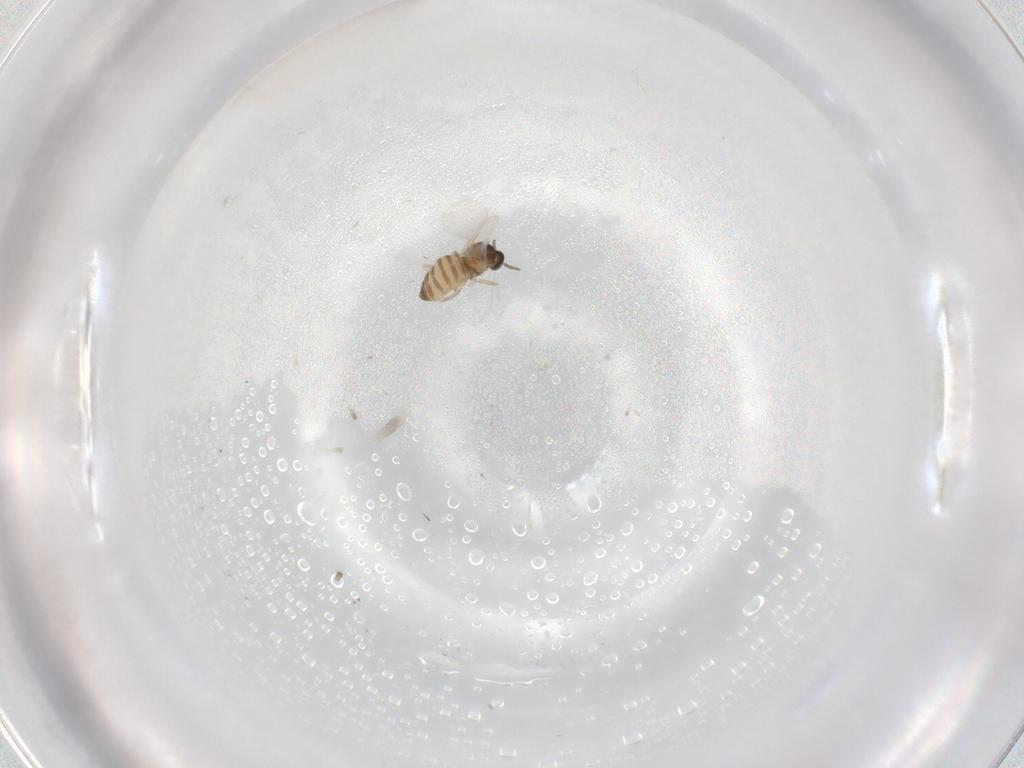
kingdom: Animalia
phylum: Arthropoda
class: Insecta
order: Diptera
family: Cecidomyiidae
